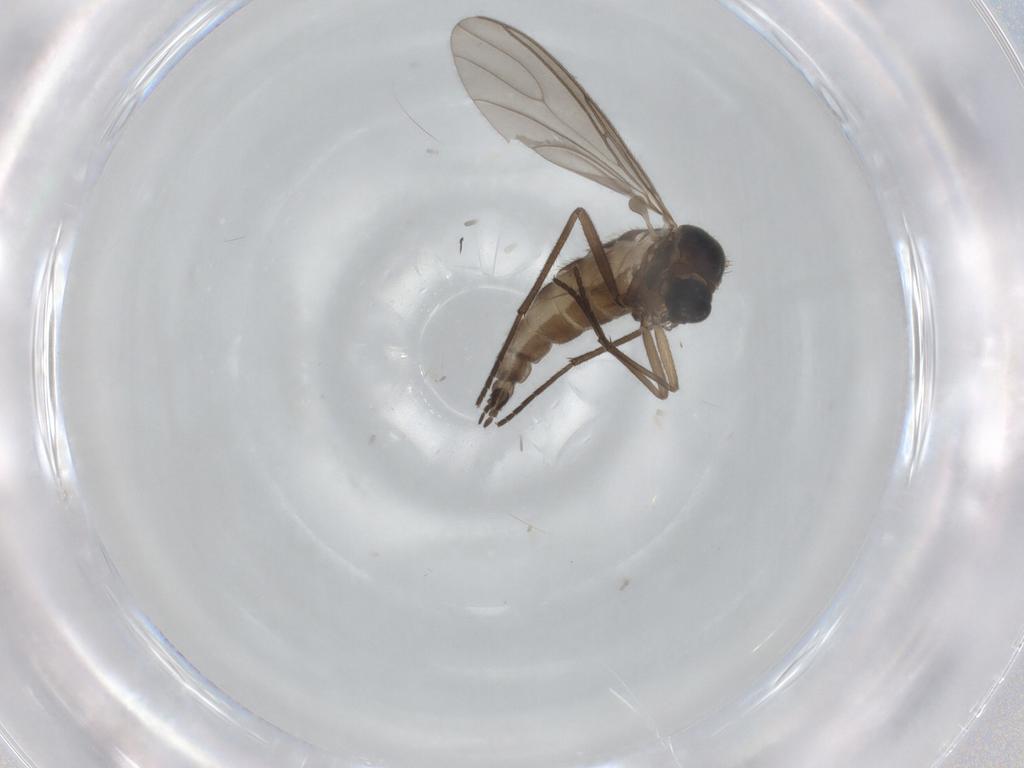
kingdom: Animalia
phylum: Arthropoda
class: Insecta
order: Diptera
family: Sciaridae
